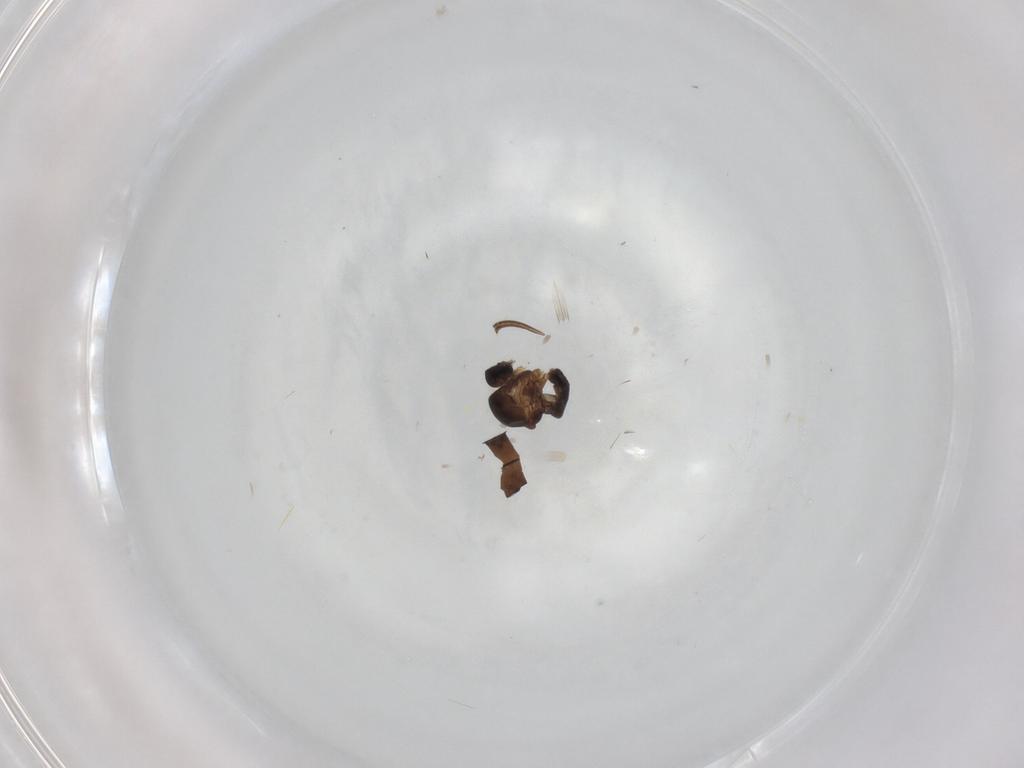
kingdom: Animalia
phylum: Arthropoda
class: Insecta
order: Diptera
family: Ceratopogonidae
